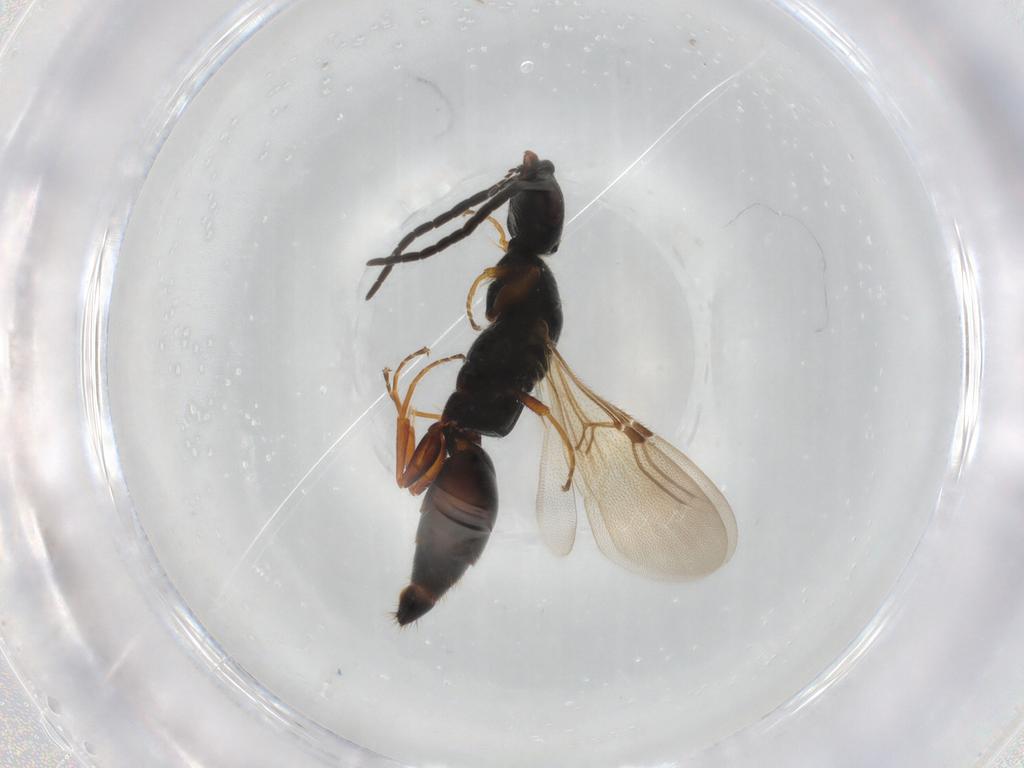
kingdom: Animalia
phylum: Arthropoda
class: Insecta
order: Hymenoptera
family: Bethylidae
